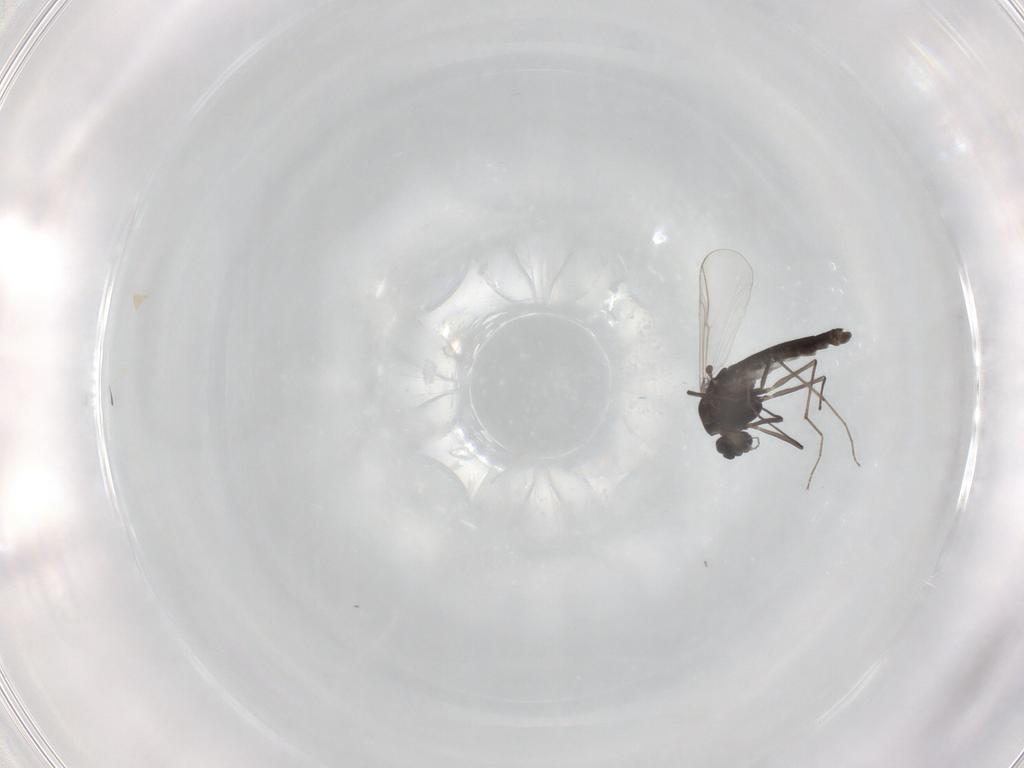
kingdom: Animalia
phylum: Arthropoda
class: Insecta
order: Diptera
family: Chironomidae
